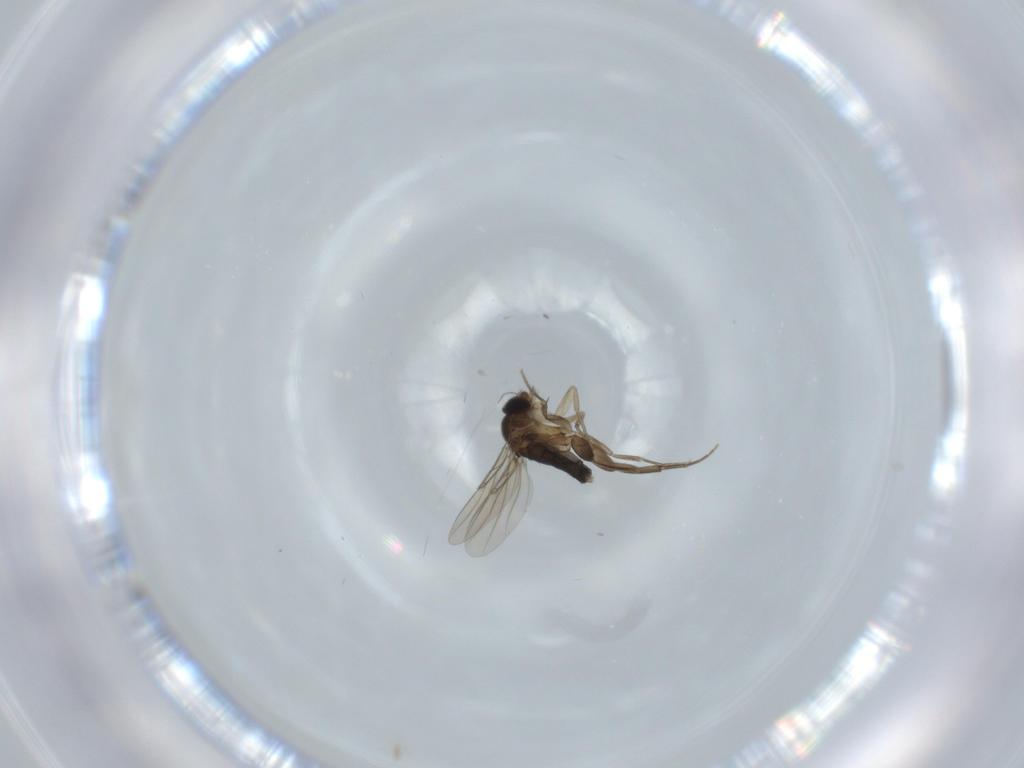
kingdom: Animalia
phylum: Arthropoda
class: Insecta
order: Diptera
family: Phoridae
